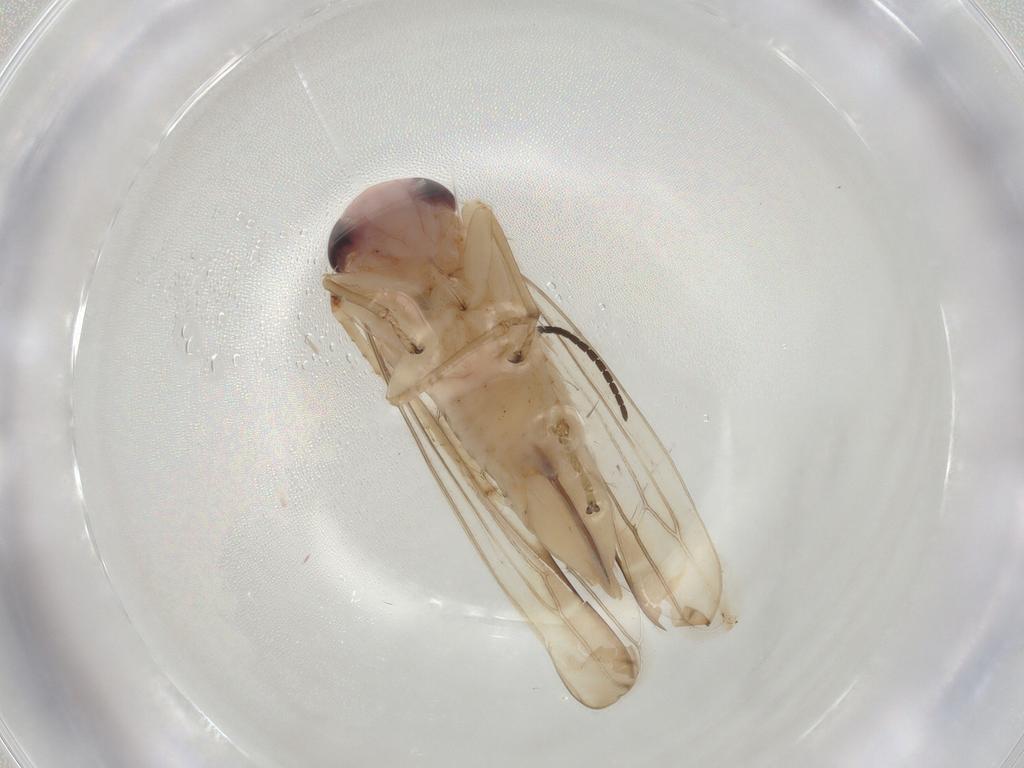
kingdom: Animalia
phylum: Arthropoda
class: Insecta
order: Hemiptera
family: Cicadellidae
